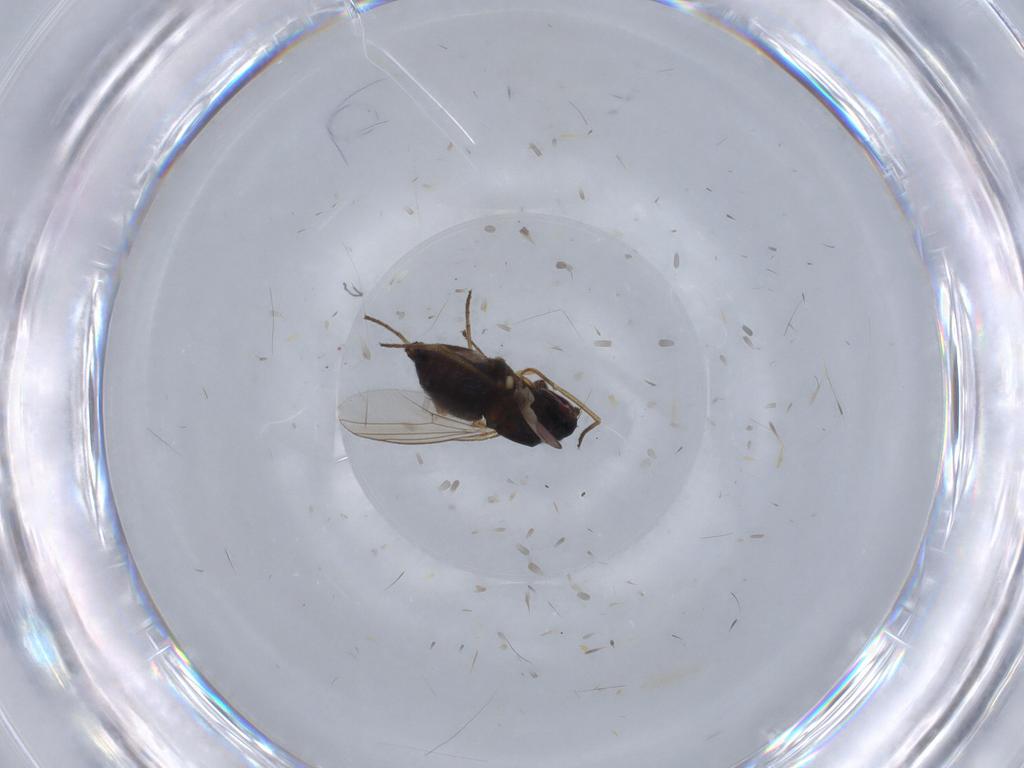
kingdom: Animalia
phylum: Arthropoda
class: Insecta
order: Diptera
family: Dolichopodidae
